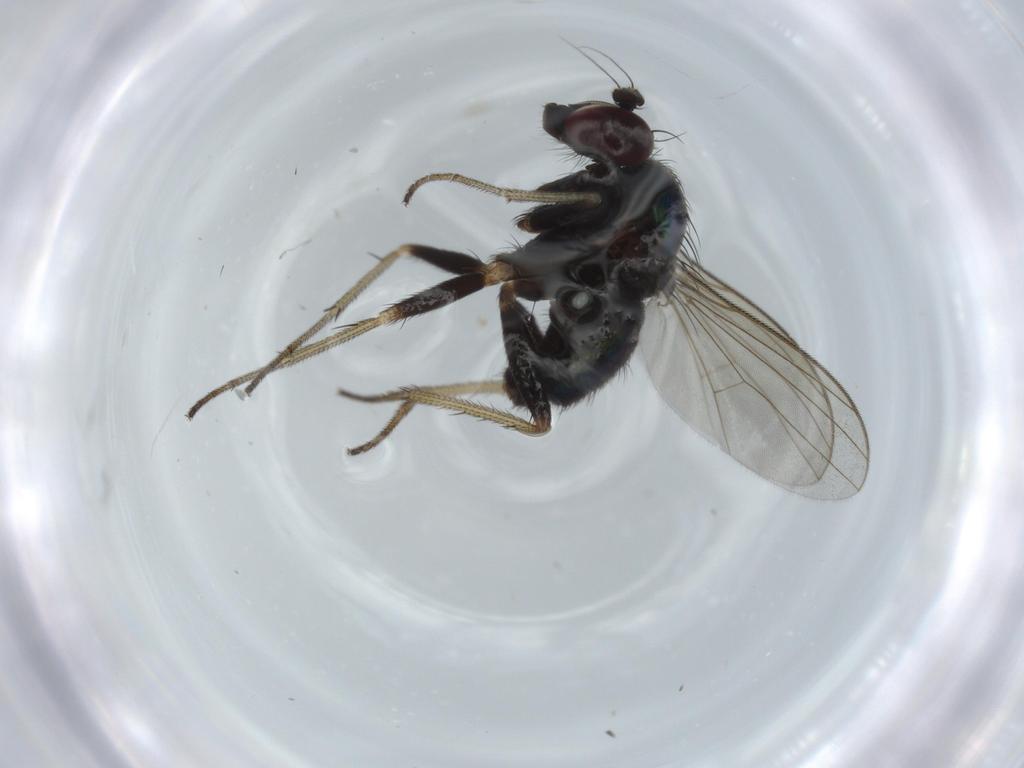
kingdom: Animalia
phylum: Arthropoda
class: Insecta
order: Diptera
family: Dolichopodidae
